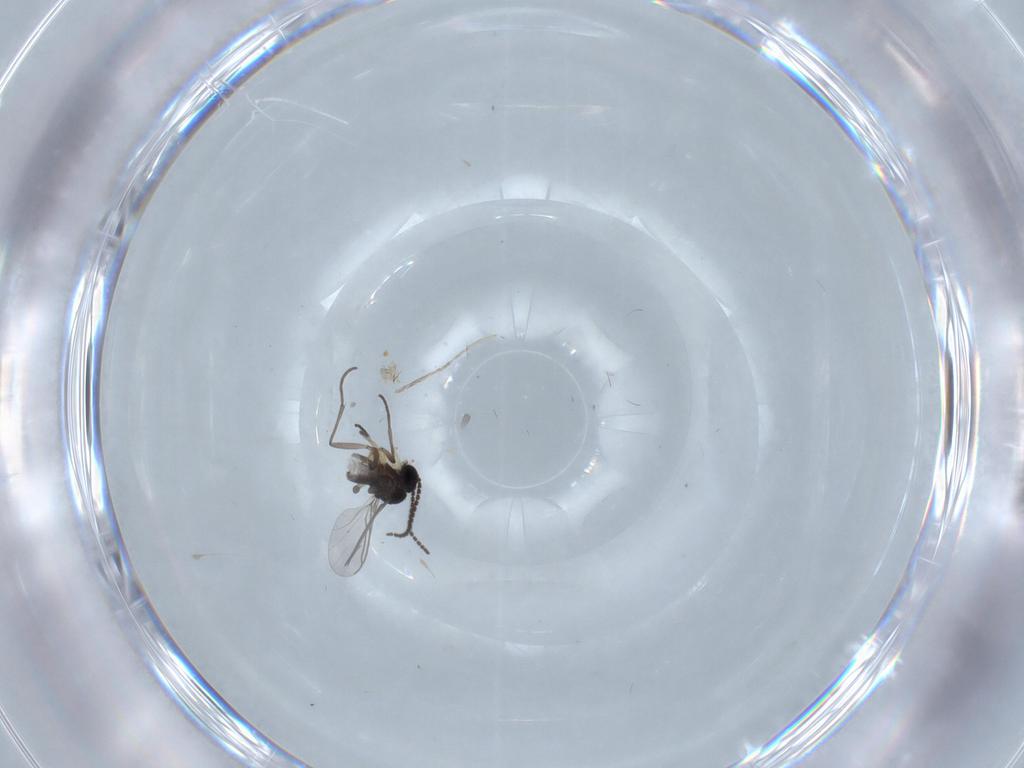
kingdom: Animalia
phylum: Arthropoda
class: Insecta
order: Diptera
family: Sciaridae
